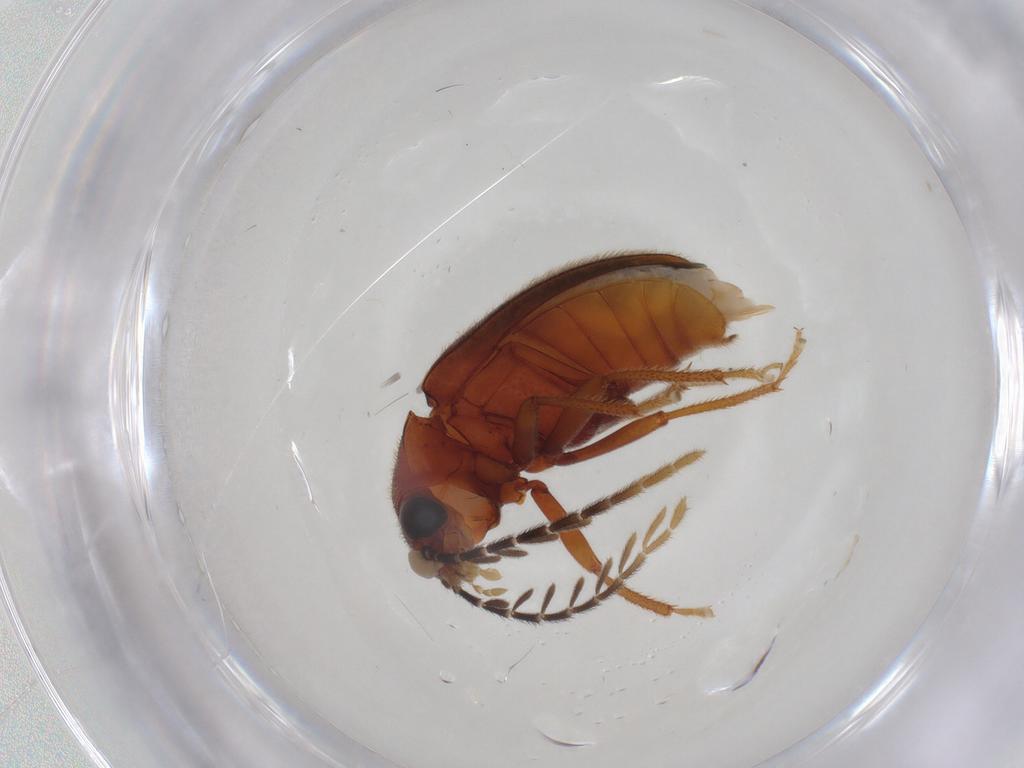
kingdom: Animalia
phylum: Arthropoda
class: Insecta
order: Coleoptera
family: Ptilodactylidae
